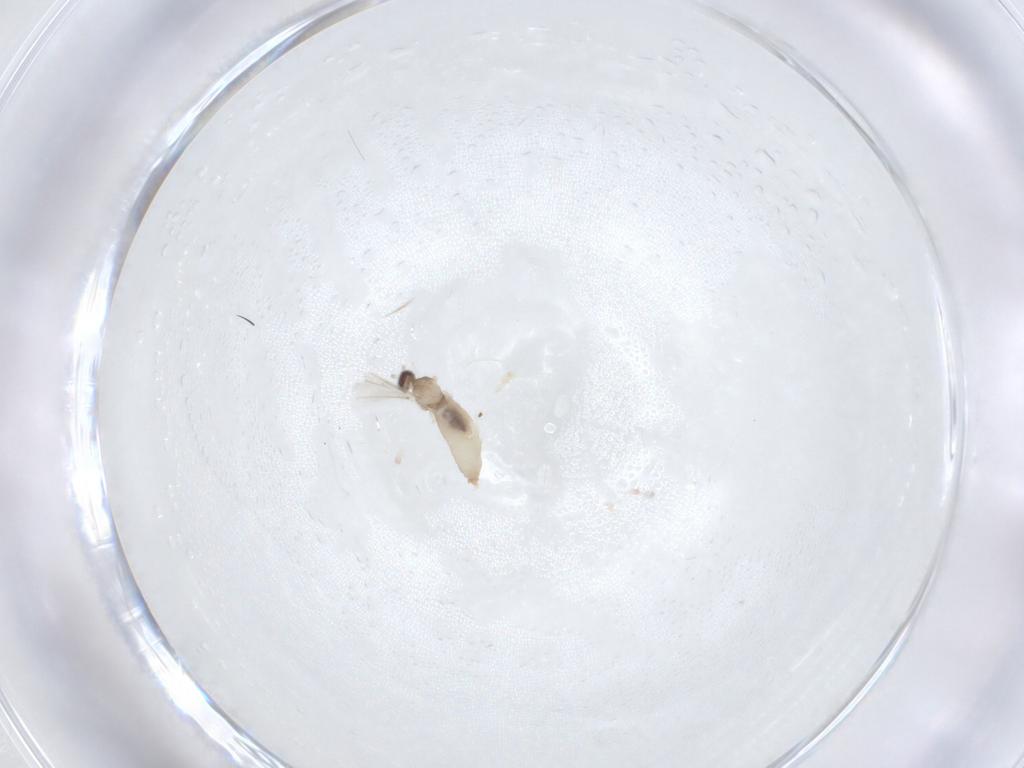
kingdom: Animalia
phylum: Arthropoda
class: Insecta
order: Diptera
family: Cecidomyiidae
